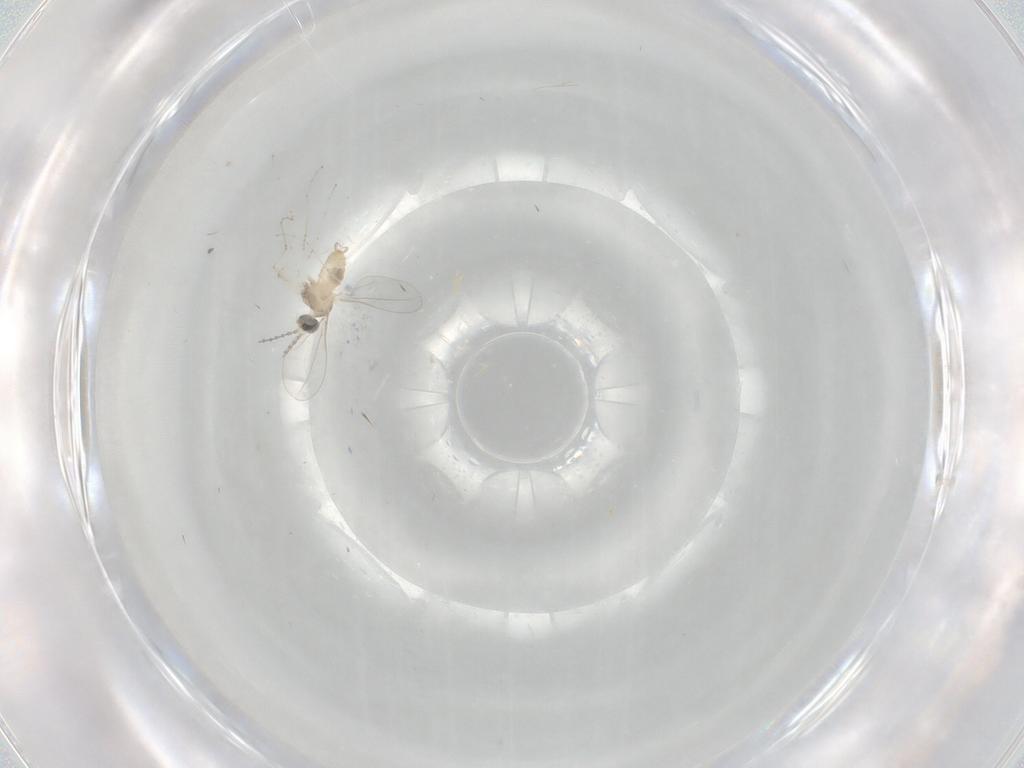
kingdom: Animalia
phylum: Arthropoda
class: Insecta
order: Diptera
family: Cecidomyiidae
